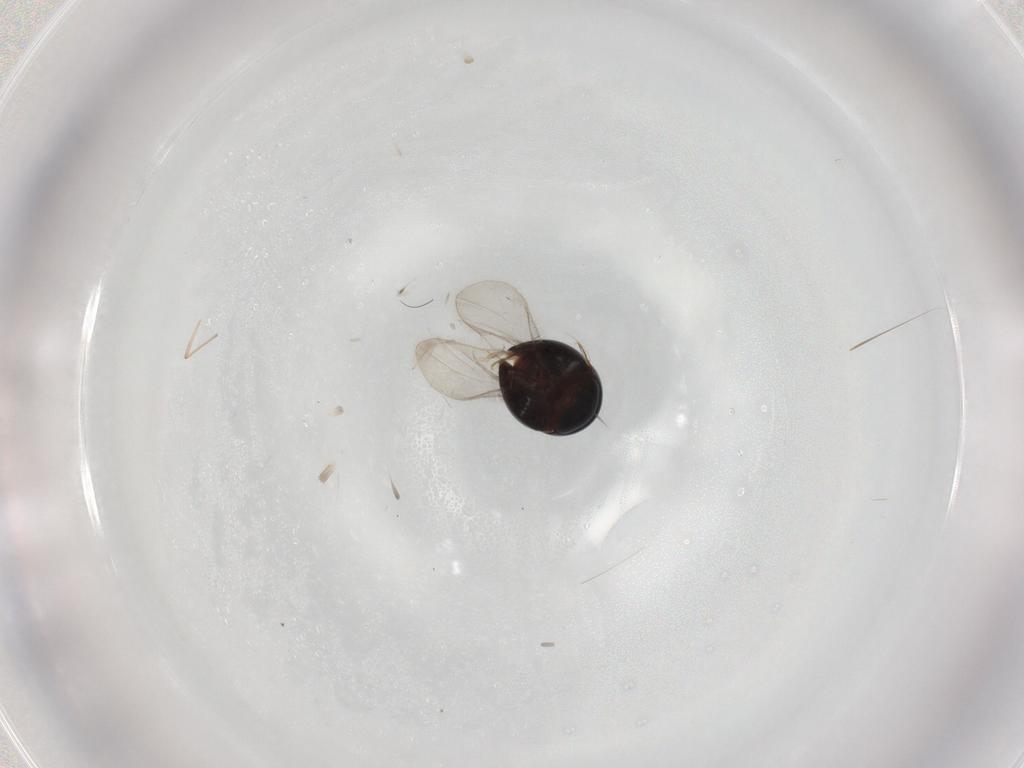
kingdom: Animalia
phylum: Arthropoda
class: Insecta
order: Coleoptera
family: Clambidae
